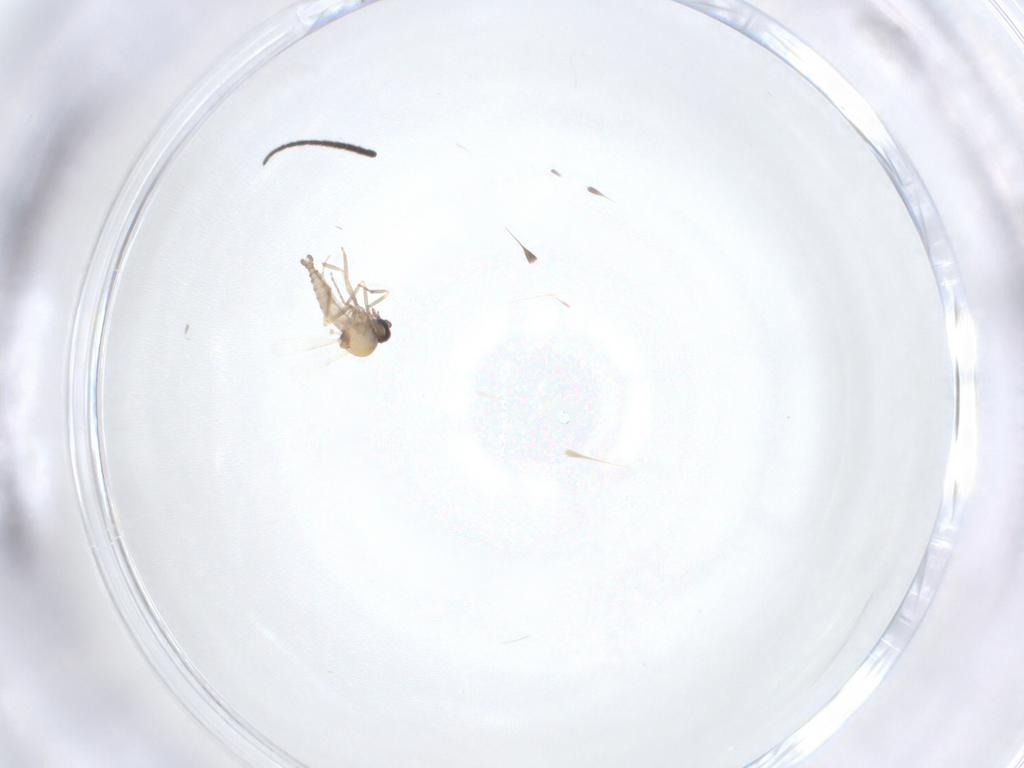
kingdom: Animalia
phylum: Arthropoda
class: Insecta
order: Diptera
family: Sciaridae
